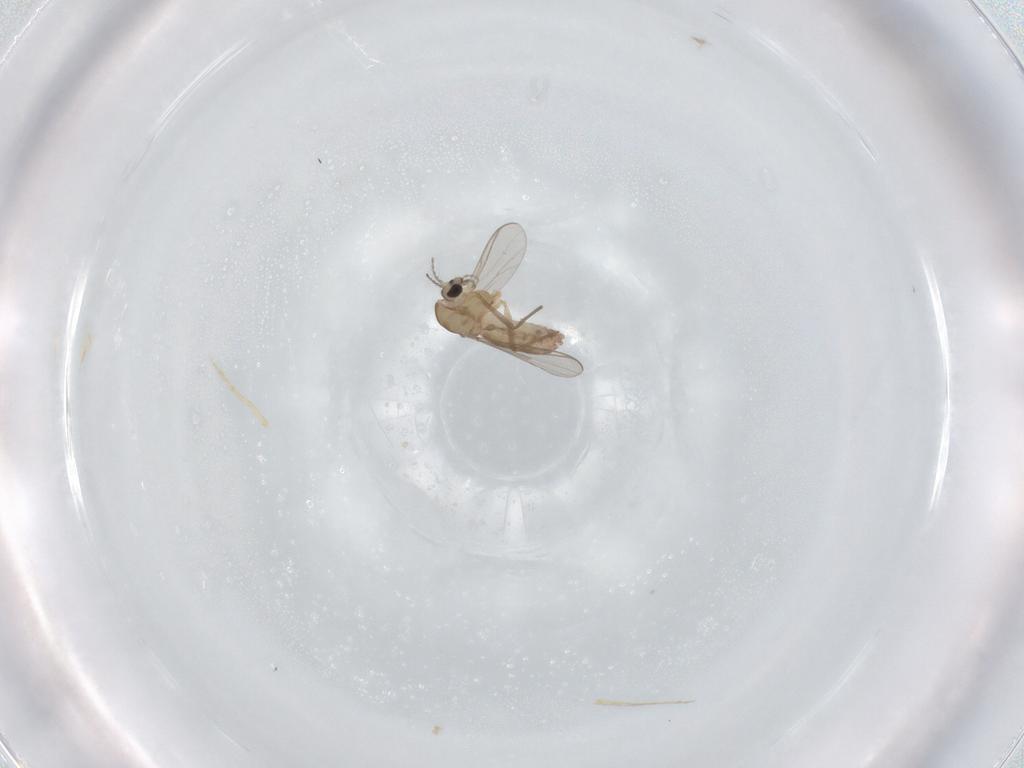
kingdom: Animalia
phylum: Arthropoda
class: Insecta
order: Diptera
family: Chironomidae
